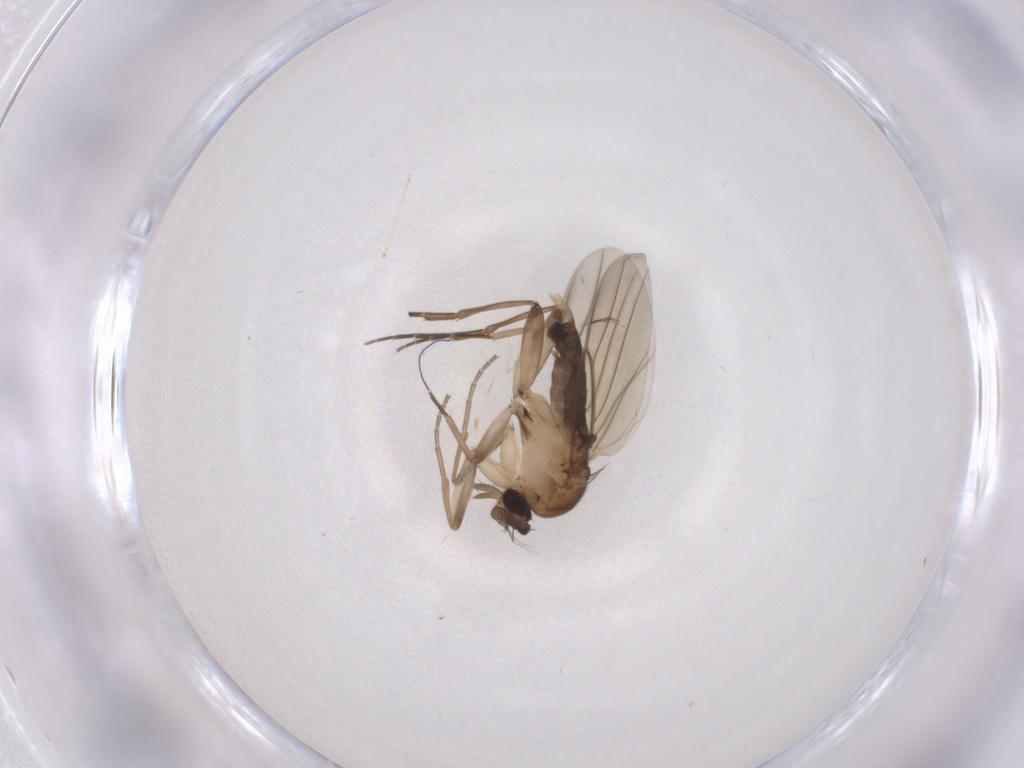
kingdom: Animalia
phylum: Arthropoda
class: Insecta
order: Diptera
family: Phoridae
